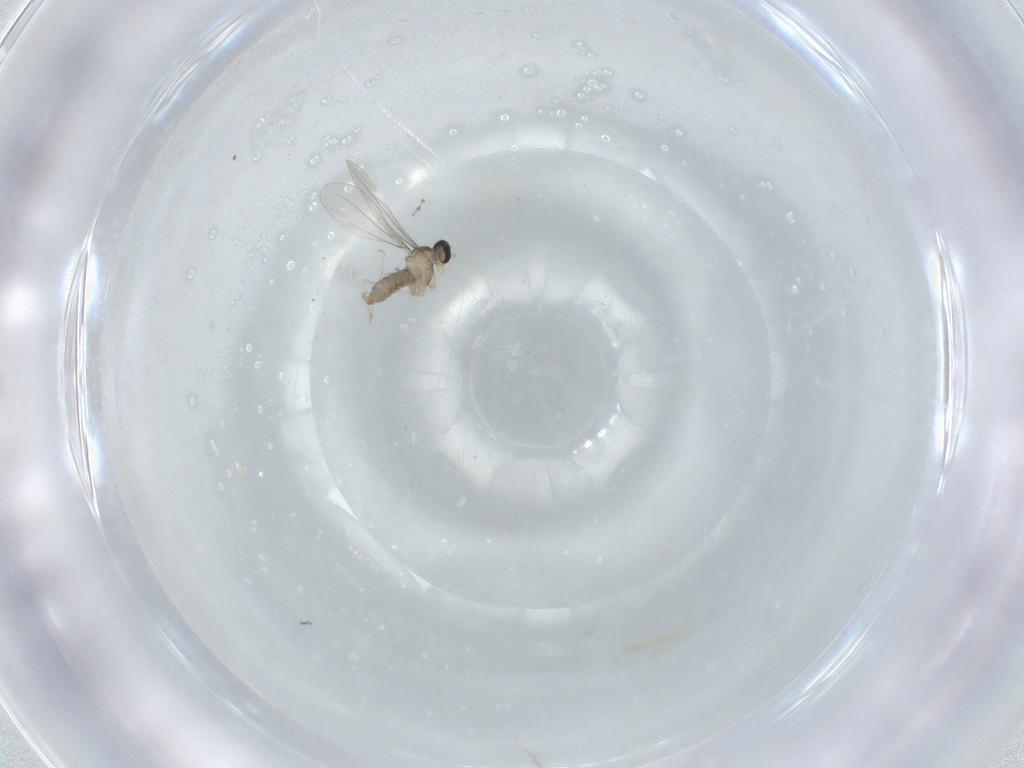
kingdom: Animalia
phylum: Arthropoda
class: Insecta
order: Diptera
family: Cecidomyiidae
